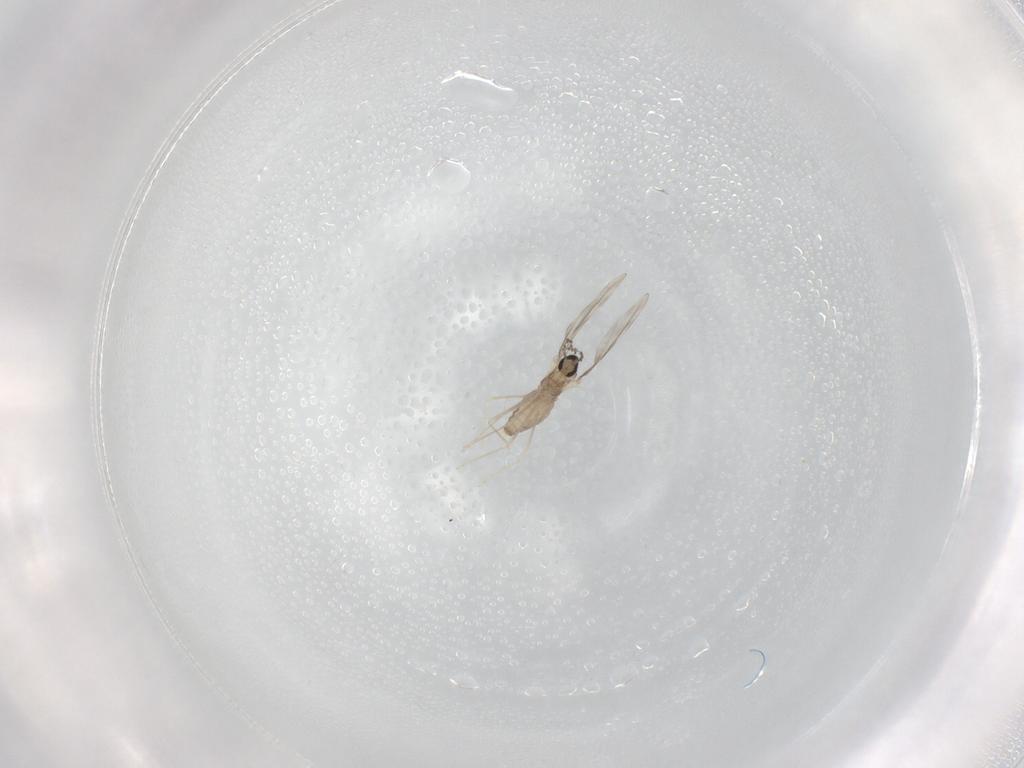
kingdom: Animalia
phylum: Arthropoda
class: Insecta
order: Diptera
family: Cecidomyiidae
